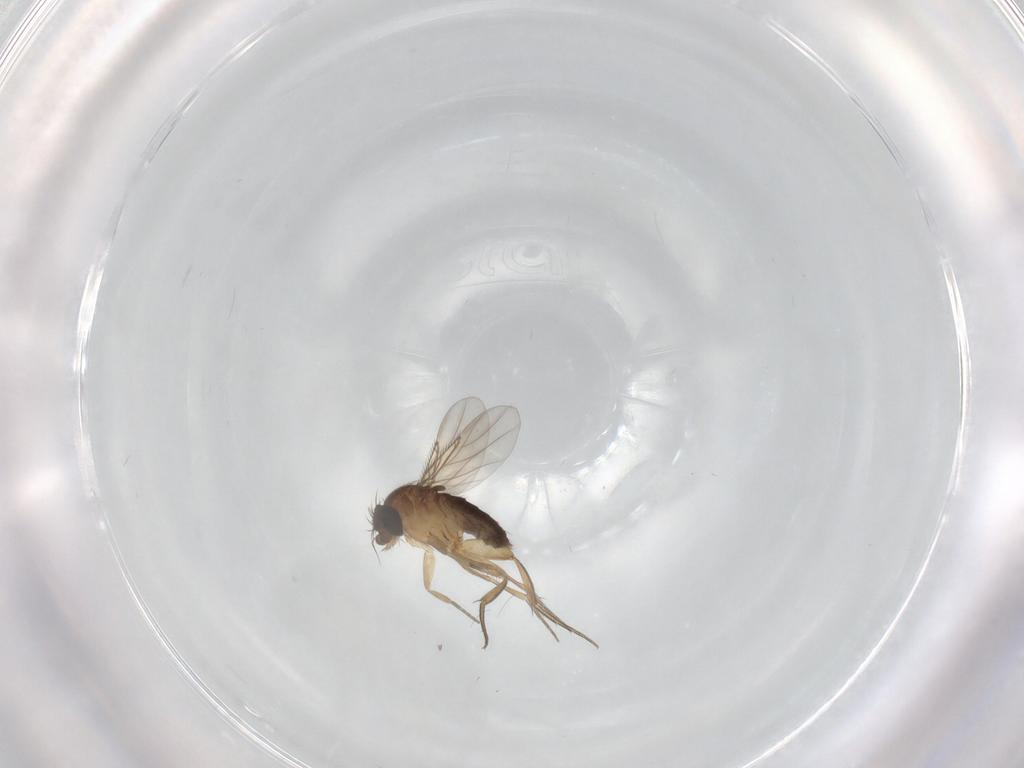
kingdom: Animalia
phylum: Arthropoda
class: Insecta
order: Diptera
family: Phoridae
